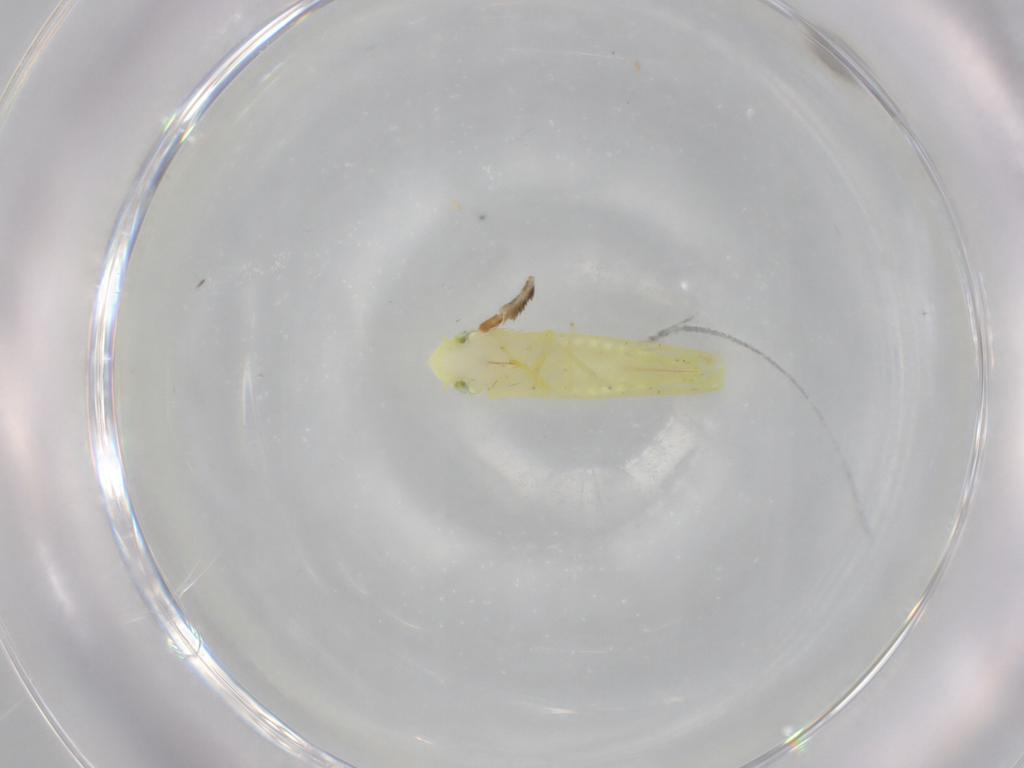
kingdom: Animalia
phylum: Arthropoda
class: Insecta
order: Hemiptera
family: Cicadellidae
